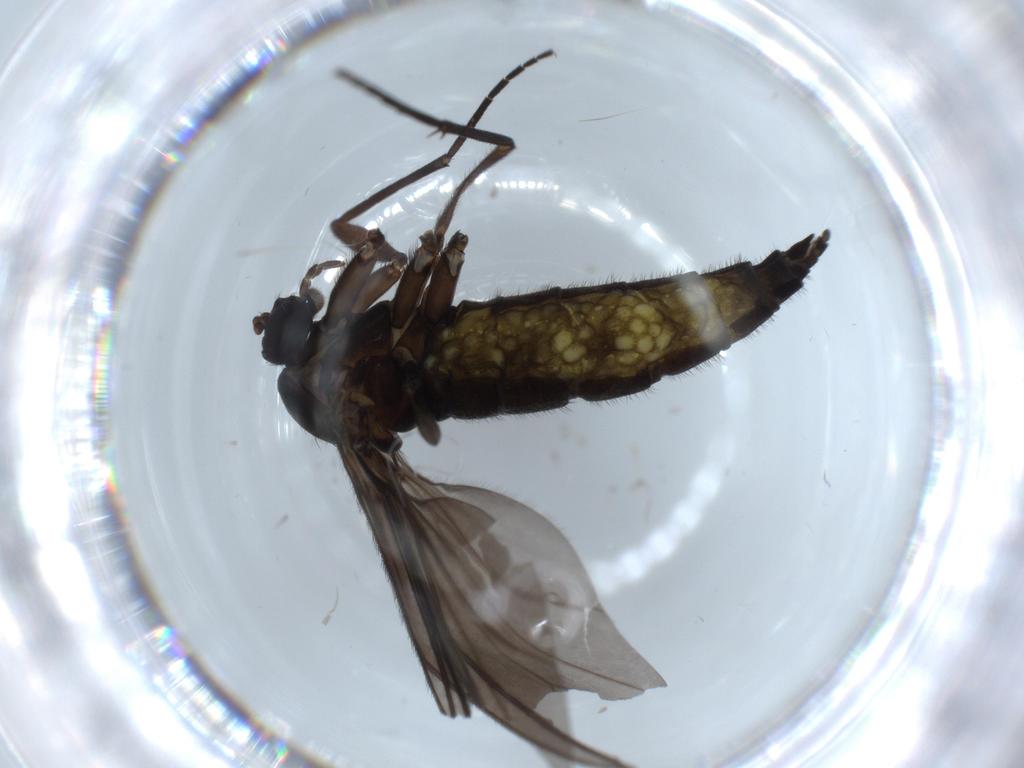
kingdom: Animalia
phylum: Arthropoda
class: Insecta
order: Diptera
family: Sciaridae
